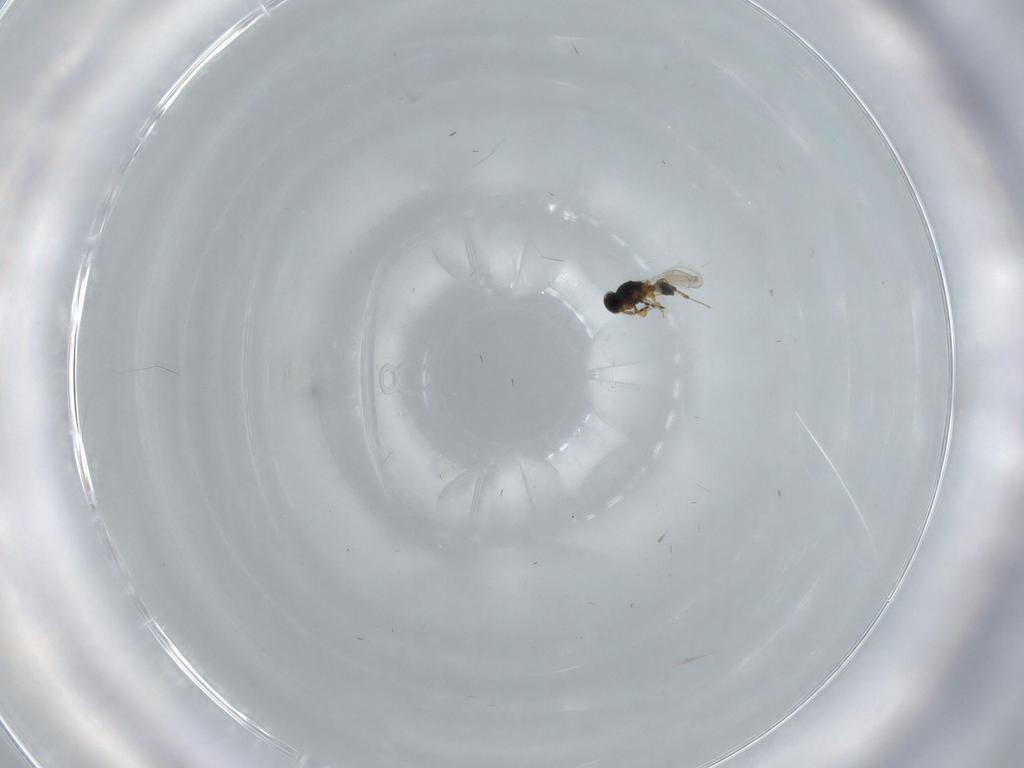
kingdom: Animalia
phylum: Arthropoda
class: Insecta
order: Hymenoptera
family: Platygastridae
